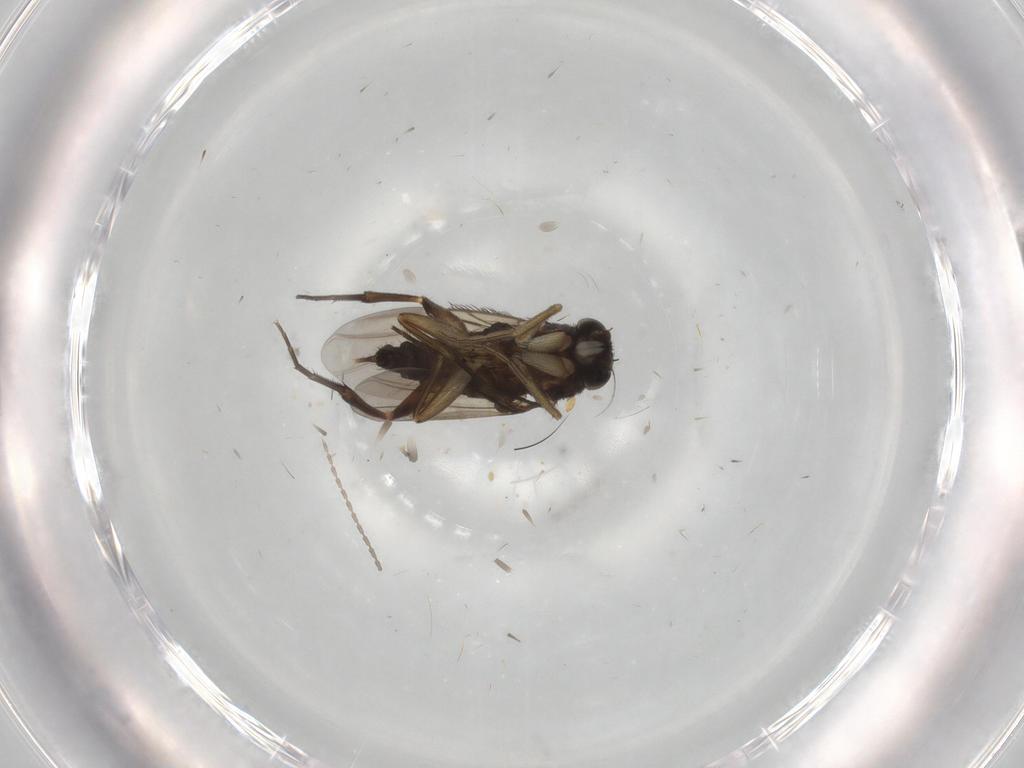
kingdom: Animalia
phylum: Arthropoda
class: Insecta
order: Diptera
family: Phoridae
